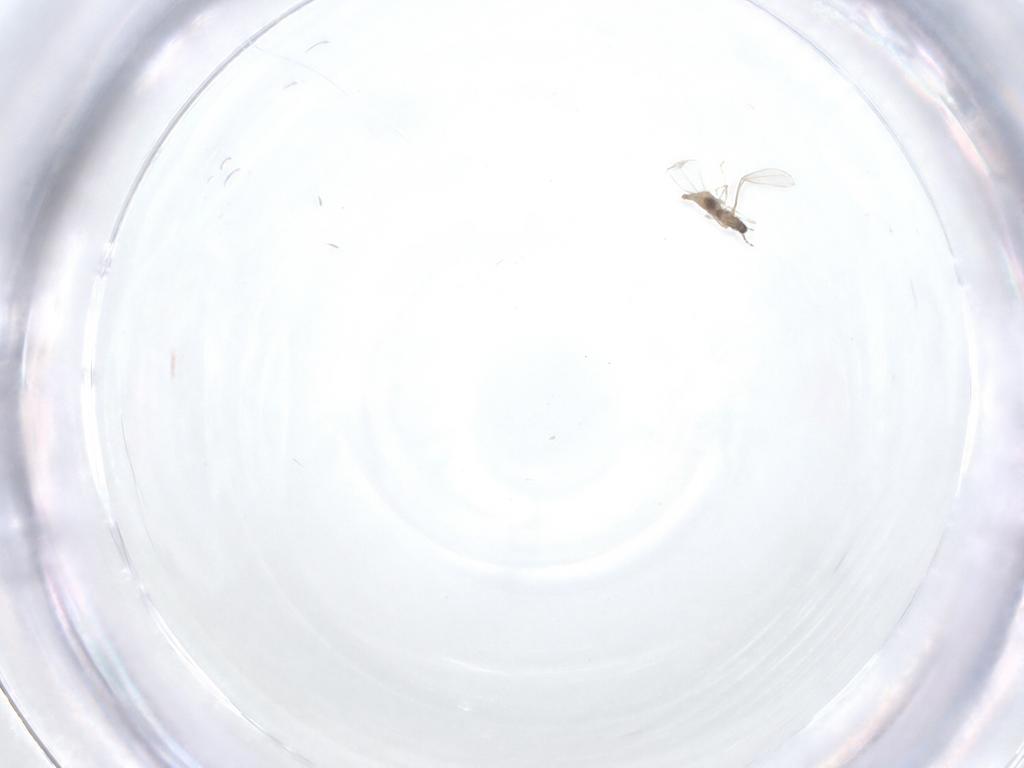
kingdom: Animalia
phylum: Arthropoda
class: Insecta
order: Diptera
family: Cecidomyiidae
